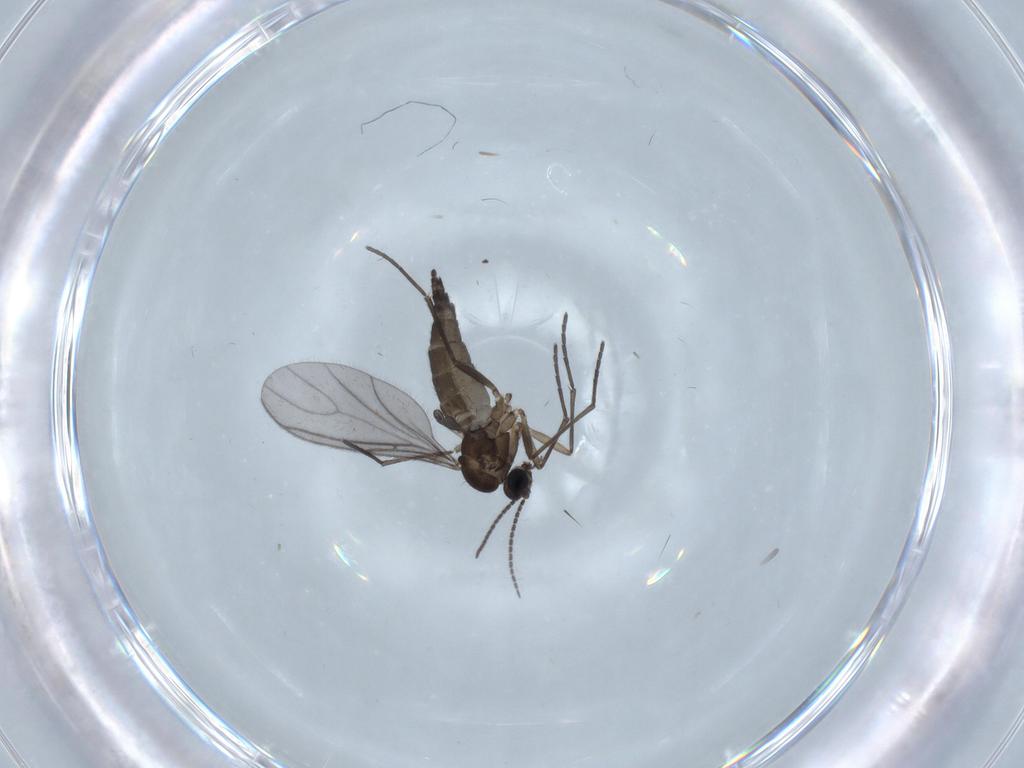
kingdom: Animalia
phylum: Arthropoda
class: Insecta
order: Diptera
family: Sciaridae
